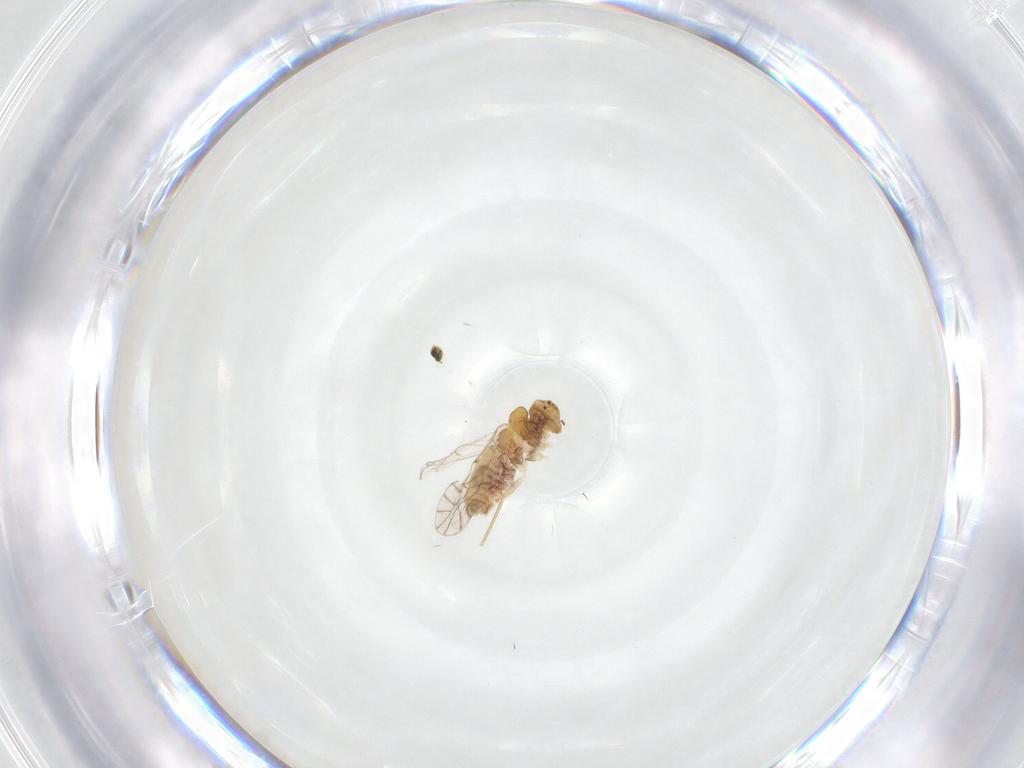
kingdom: Animalia
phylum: Arthropoda
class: Insecta
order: Psocodea
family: Lachesillidae
